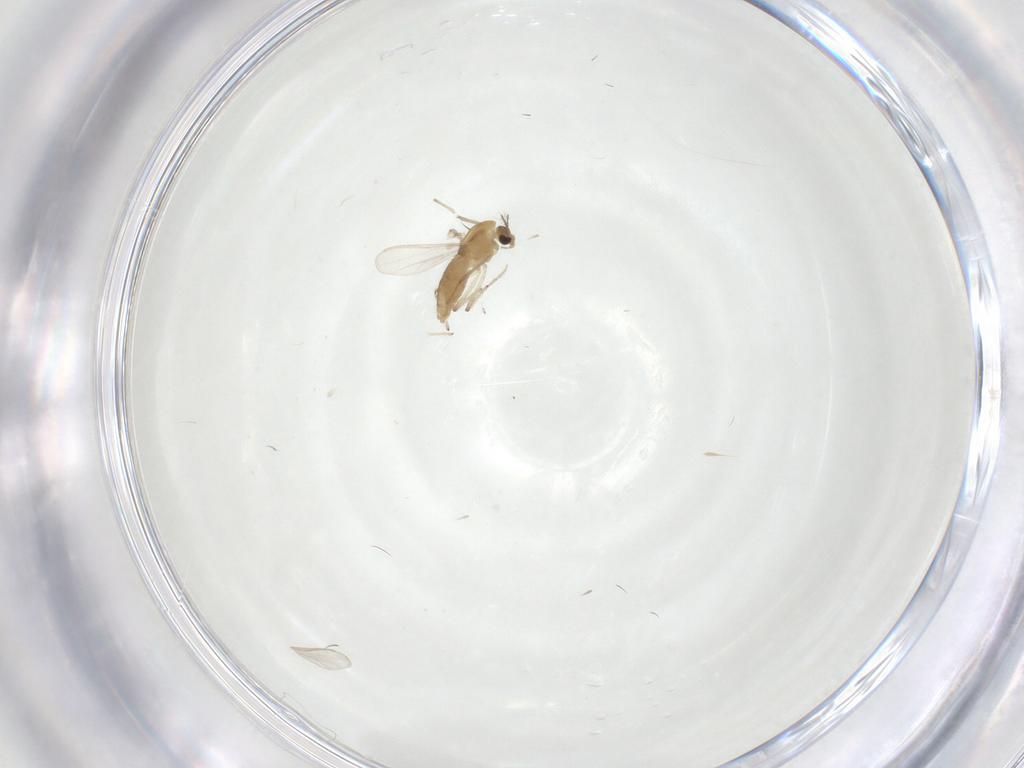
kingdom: Animalia
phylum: Arthropoda
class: Insecta
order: Diptera
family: Chironomidae
